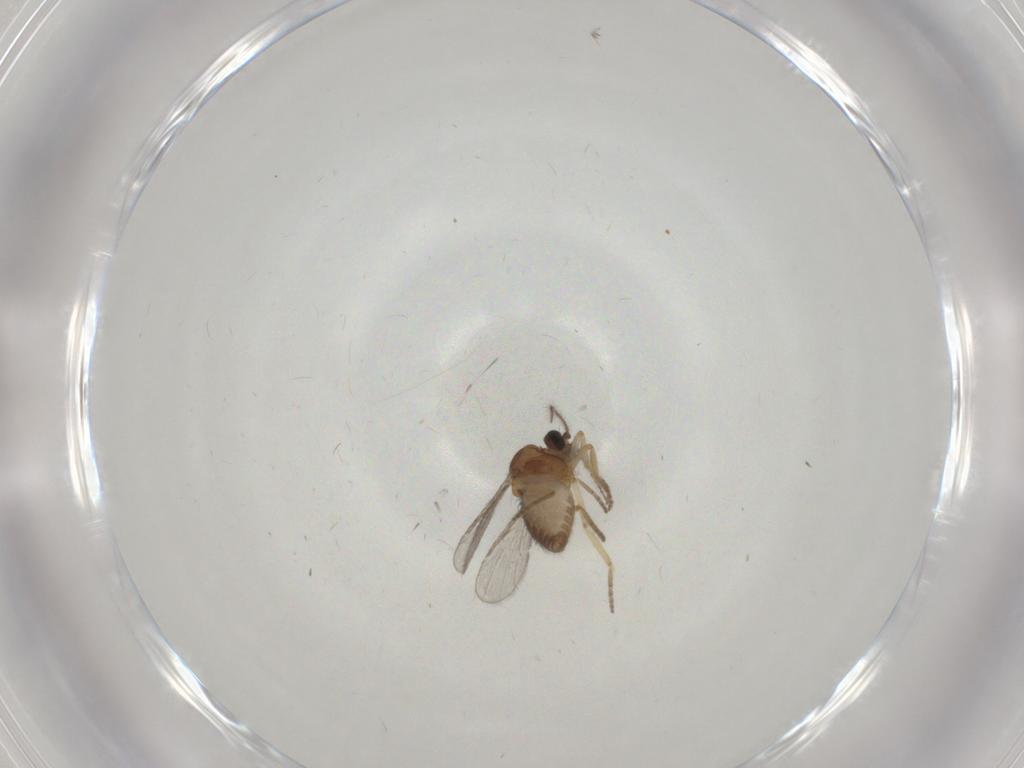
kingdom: Animalia
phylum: Arthropoda
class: Insecta
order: Diptera
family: Ceratopogonidae
